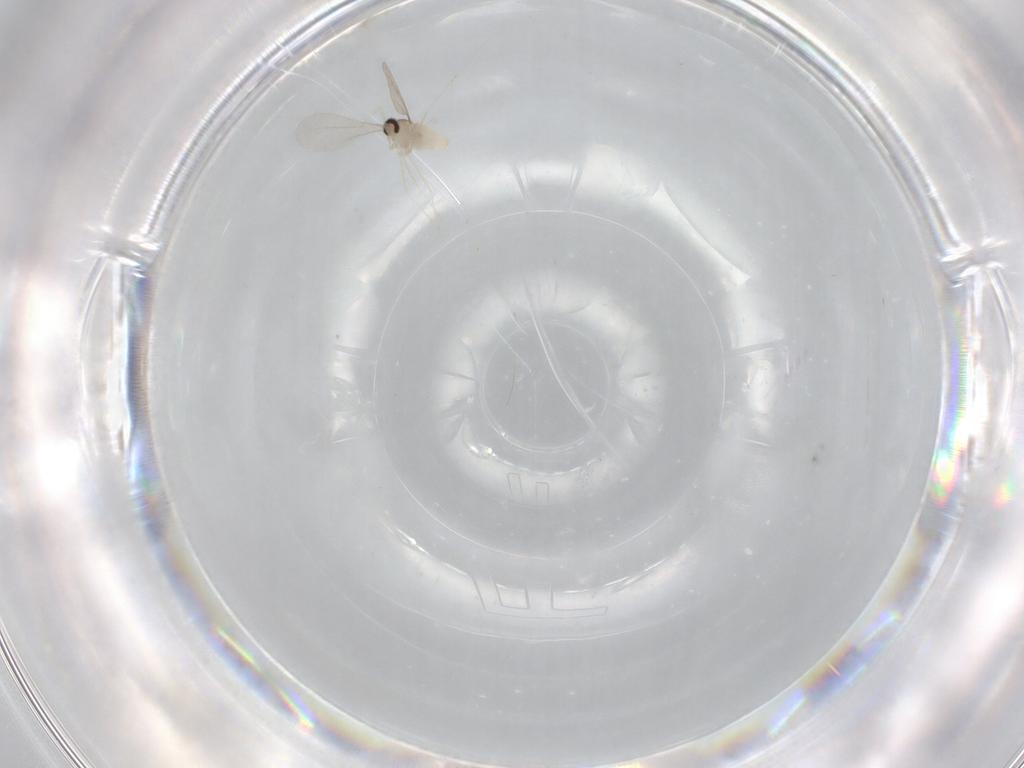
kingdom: Animalia
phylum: Arthropoda
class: Insecta
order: Diptera
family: Cecidomyiidae
